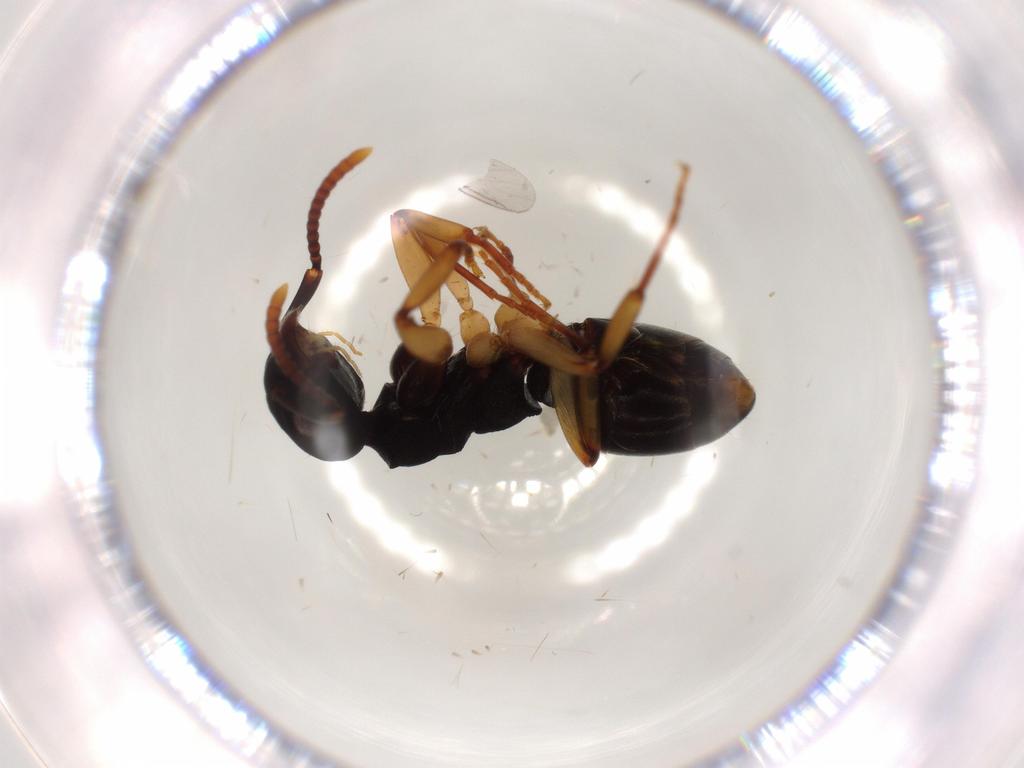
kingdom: Animalia
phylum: Arthropoda
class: Insecta
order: Hymenoptera
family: Formicidae
